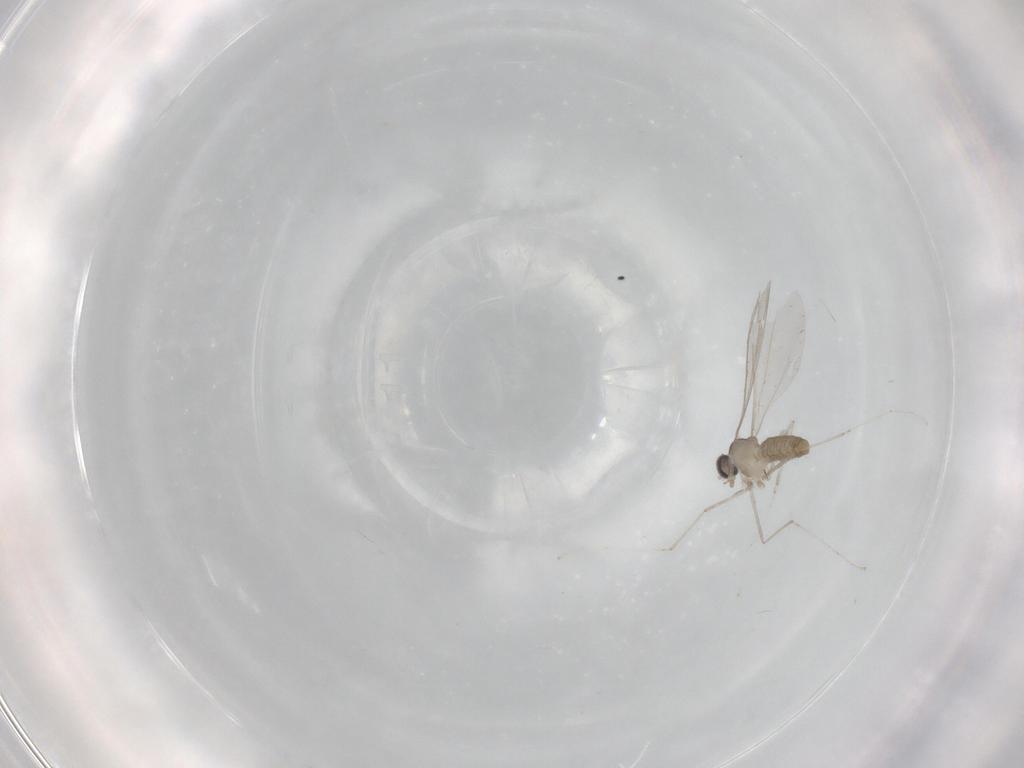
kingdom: Animalia
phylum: Arthropoda
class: Insecta
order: Diptera
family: Cecidomyiidae
